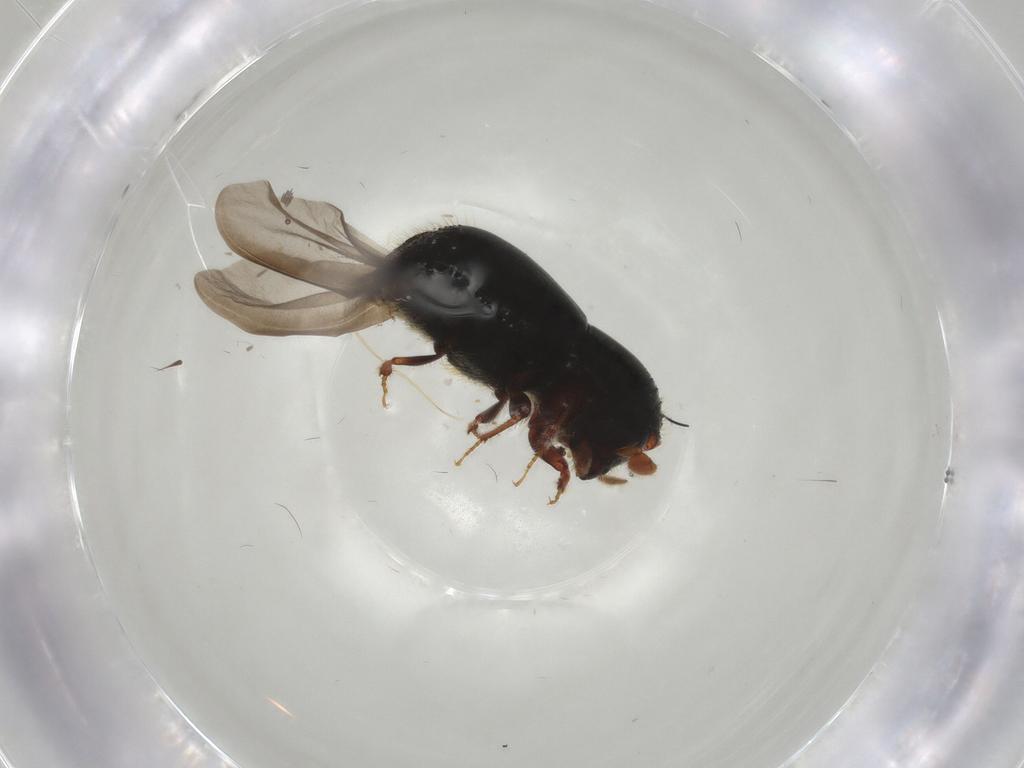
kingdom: Animalia
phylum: Arthropoda
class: Insecta
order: Coleoptera
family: Curculionidae
